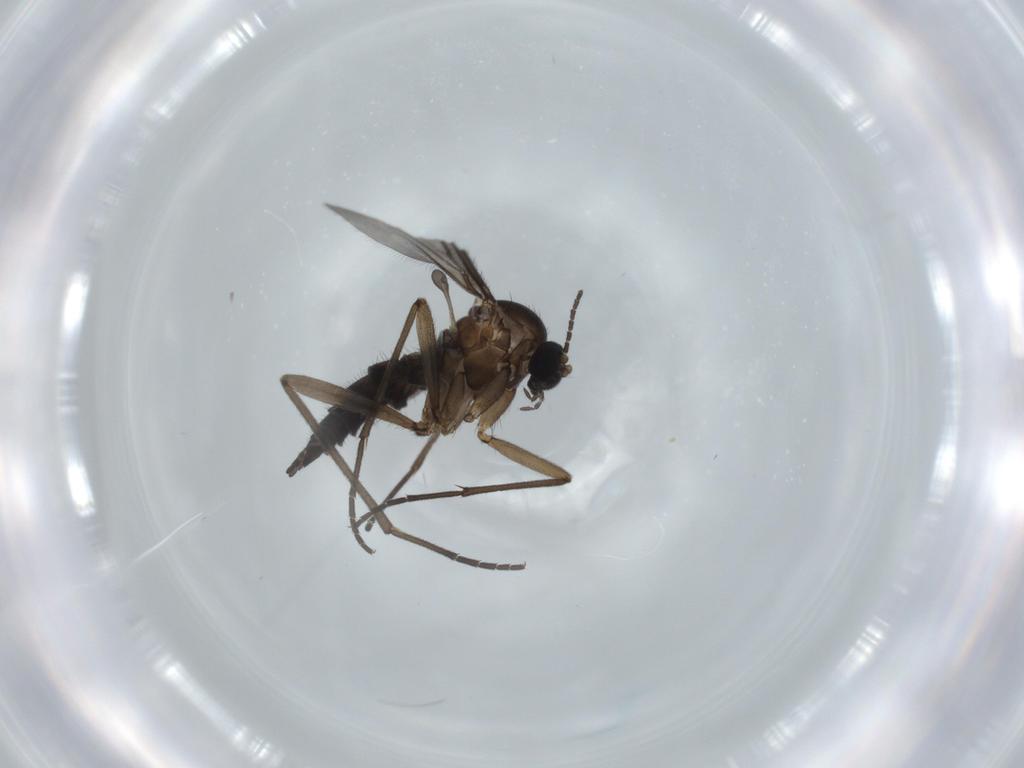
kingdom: Animalia
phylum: Arthropoda
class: Insecta
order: Diptera
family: Sciaridae
